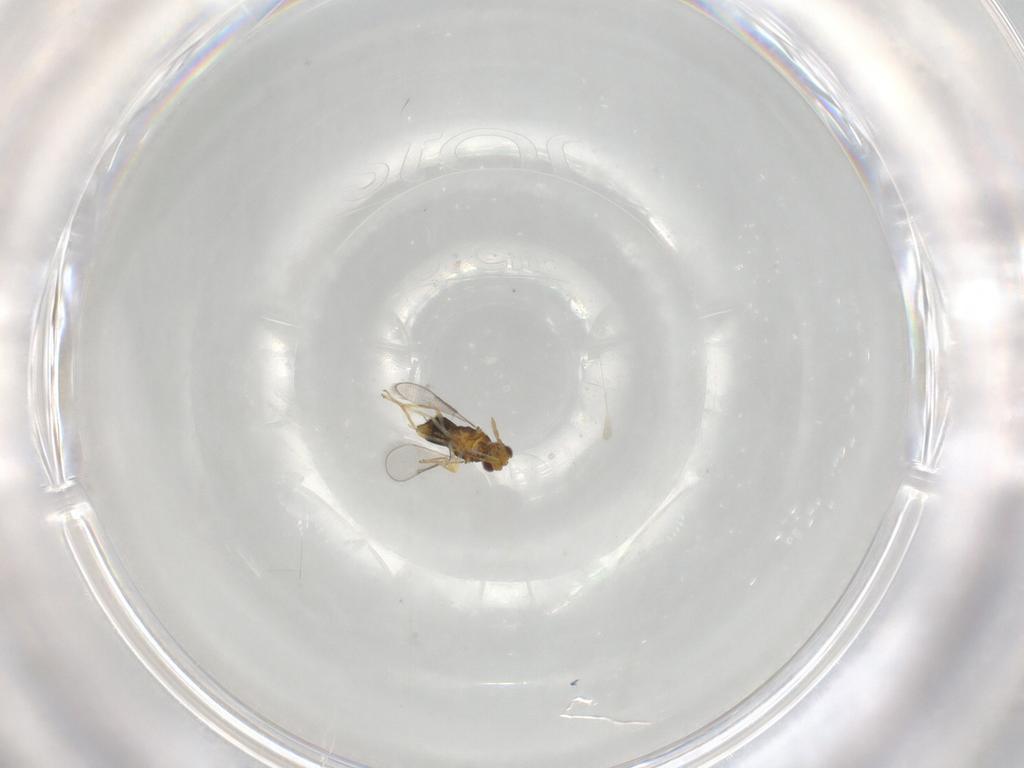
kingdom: Animalia
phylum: Arthropoda
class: Insecta
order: Hymenoptera
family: Aphelinidae
